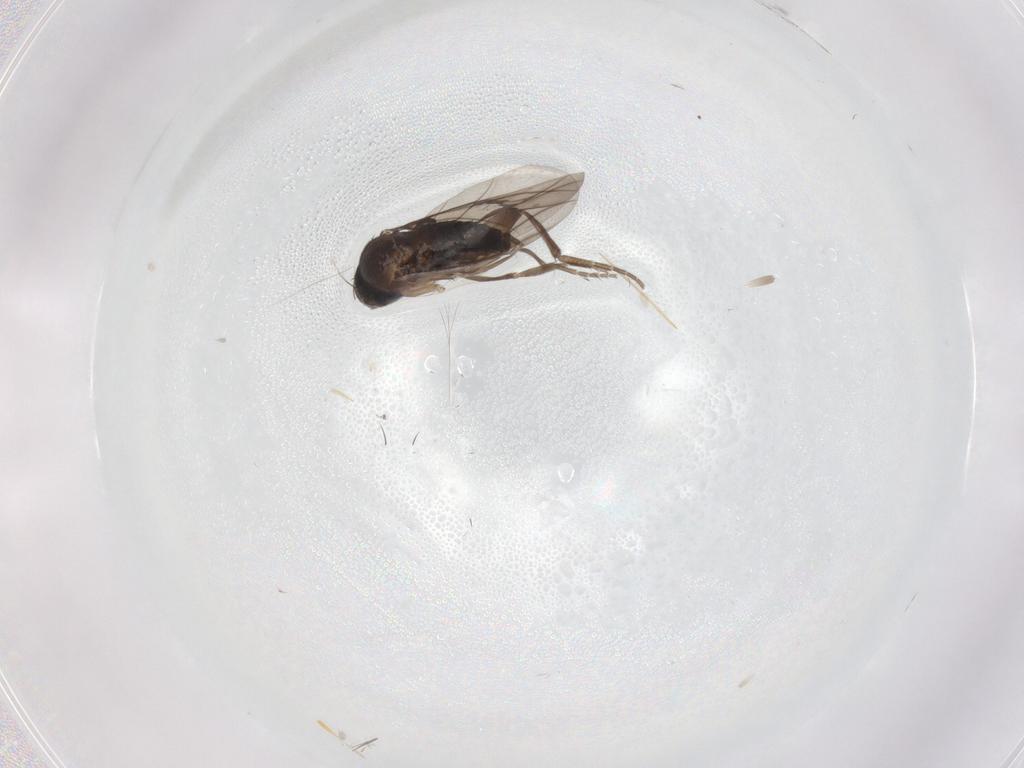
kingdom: Animalia
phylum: Arthropoda
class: Insecta
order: Diptera
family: Phoridae
